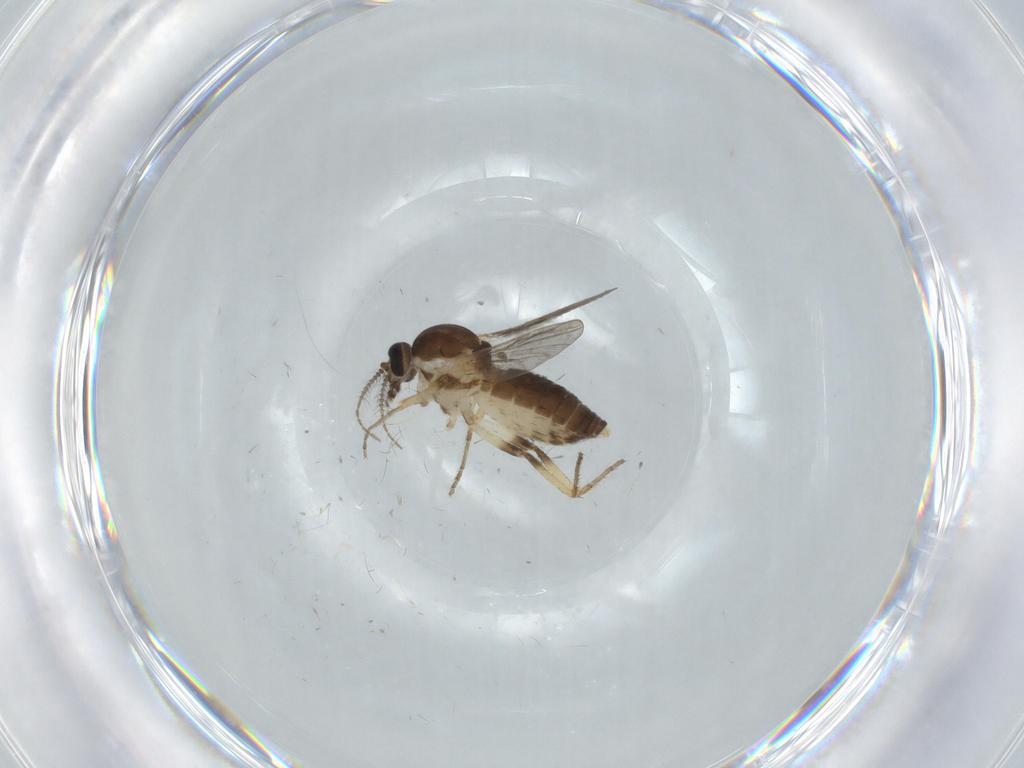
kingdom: Animalia
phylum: Arthropoda
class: Insecta
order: Diptera
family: Ceratopogonidae
